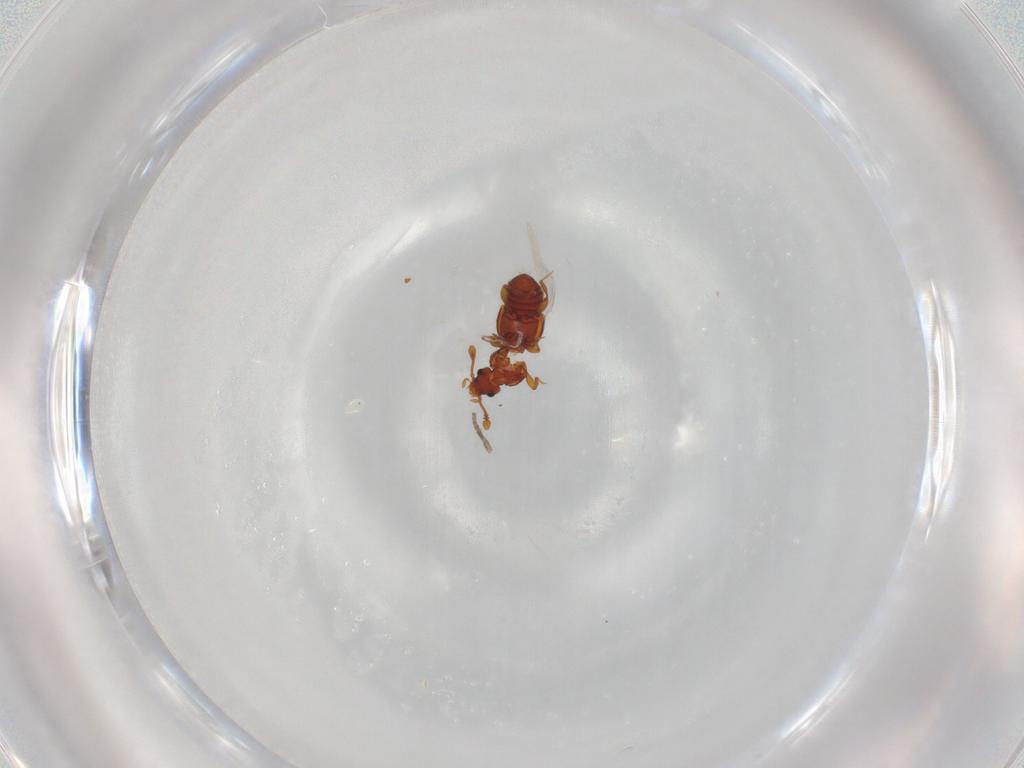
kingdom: Animalia
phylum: Arthropoda
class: Insecta
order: Coleoptera
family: Staphylinidae
